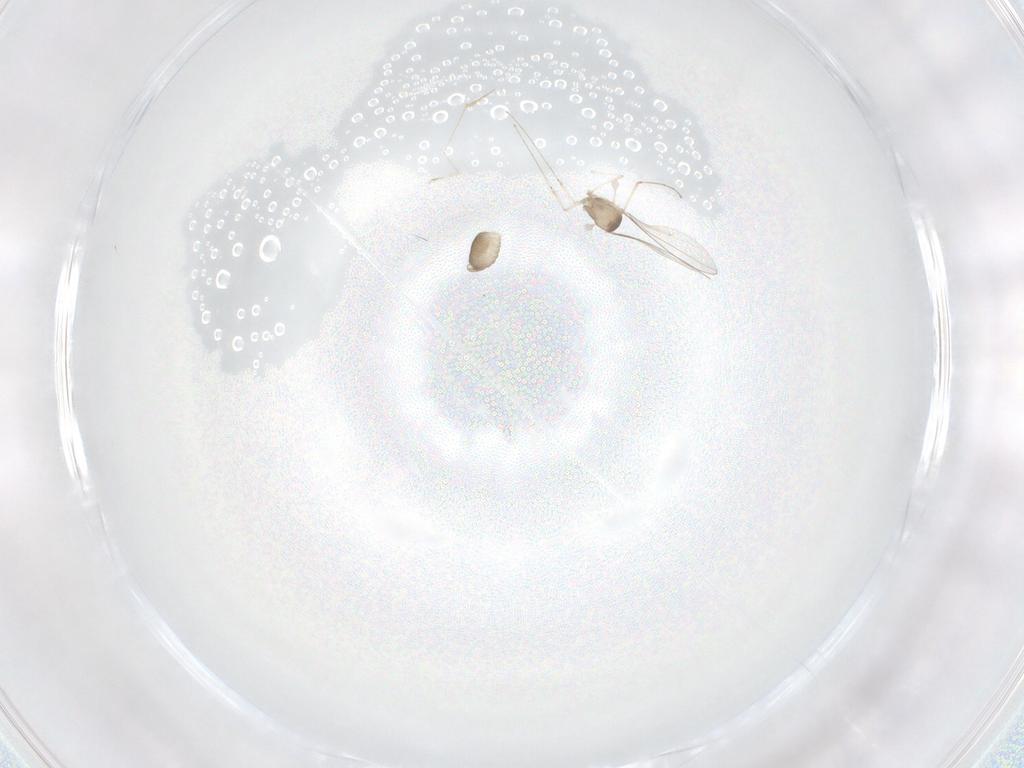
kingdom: Animalia
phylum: Arthropoda
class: Insecta
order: Diptera
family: Cecidomyiidae
